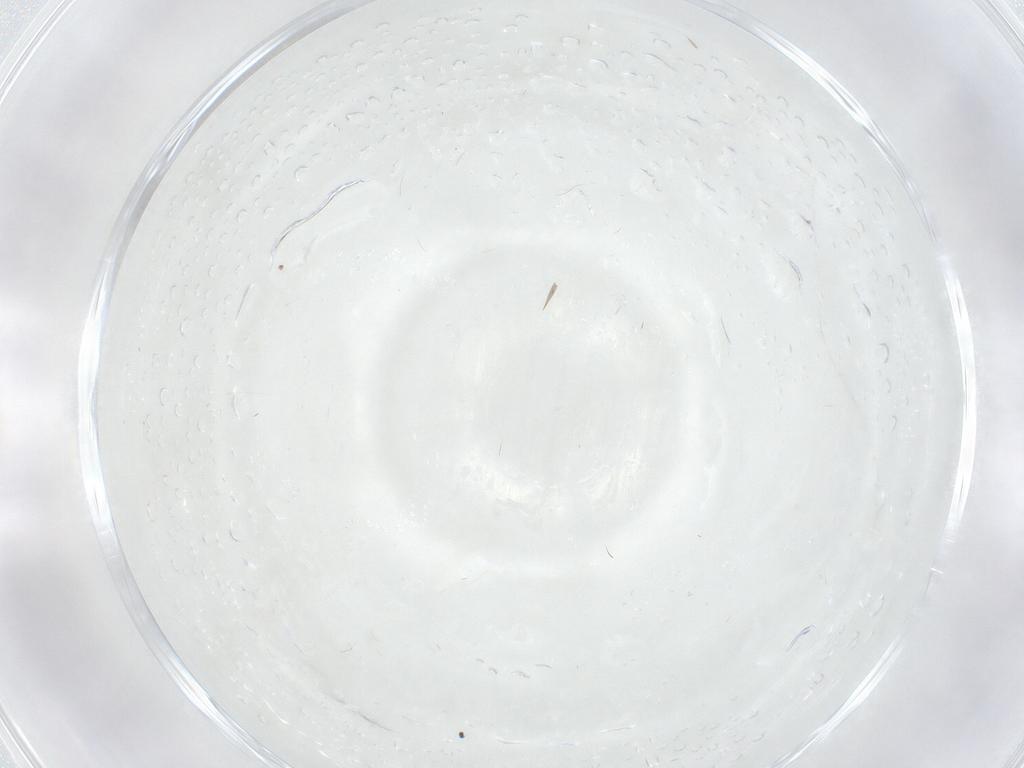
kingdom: Animalia
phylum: Arthropoda
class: Insecta
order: Diptera
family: Cecidomyiidae
